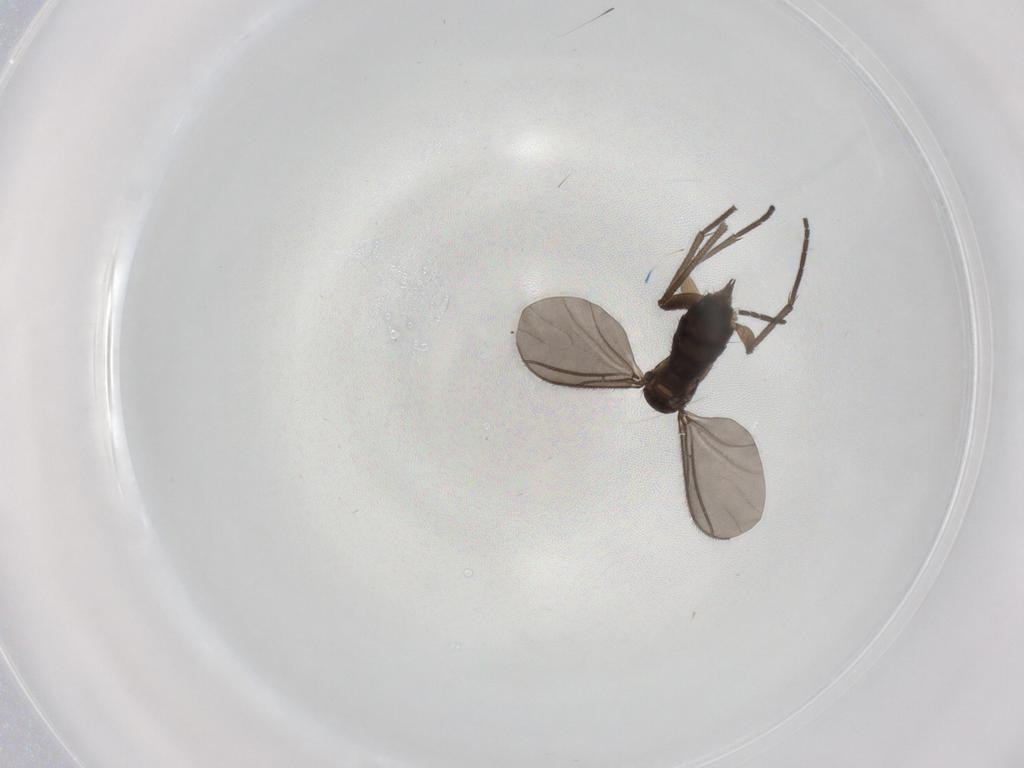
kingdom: Animalia
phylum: Arthropoda
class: Insecta
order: Diptera
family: Sciaridae
